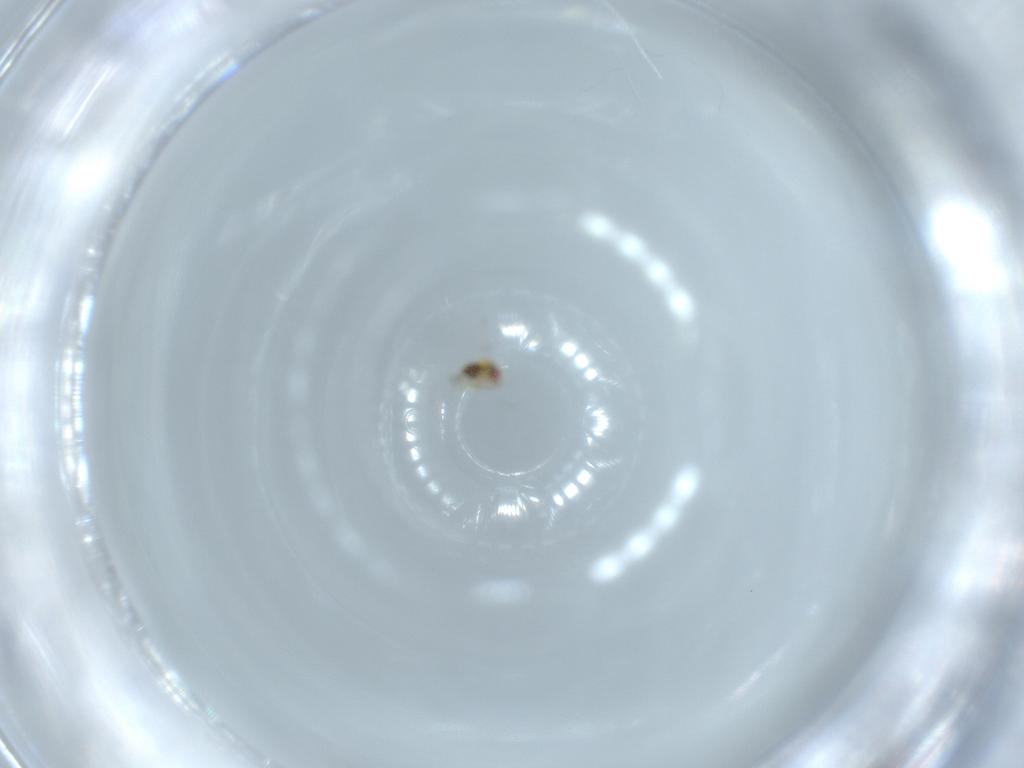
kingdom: Animalia
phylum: Arthropoda
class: Insecta
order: Hymenoptera
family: Trichogrammatidae
